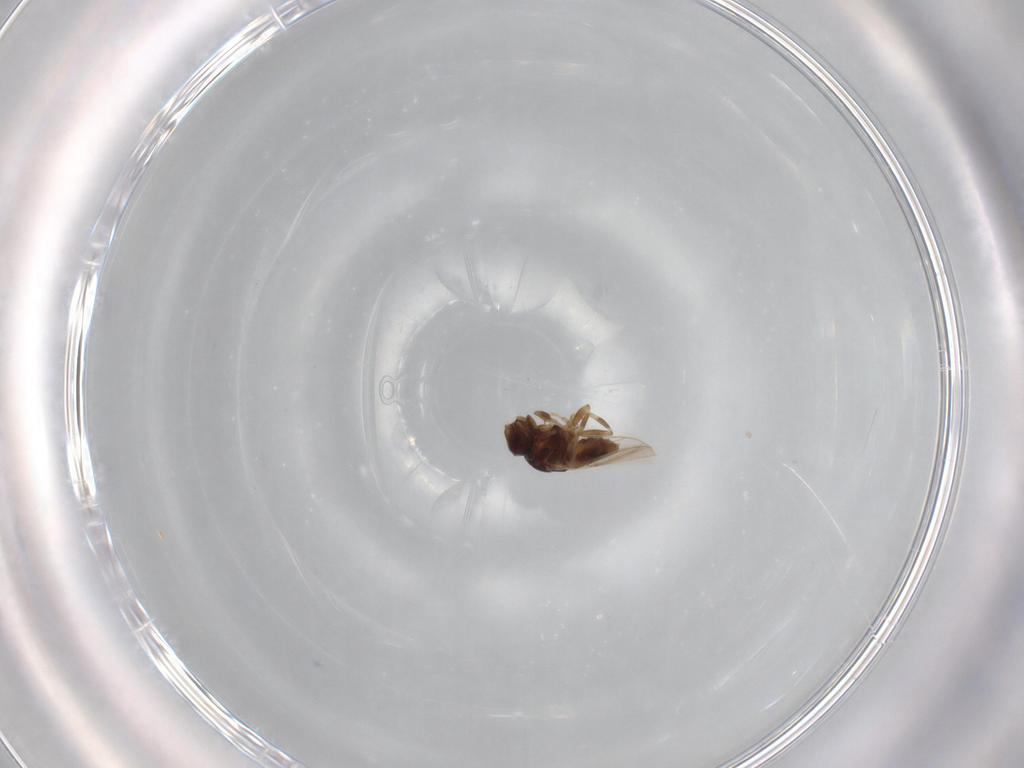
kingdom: Animalia
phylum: Arthropoda
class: Insecta
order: Diptera
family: Chloropidae
